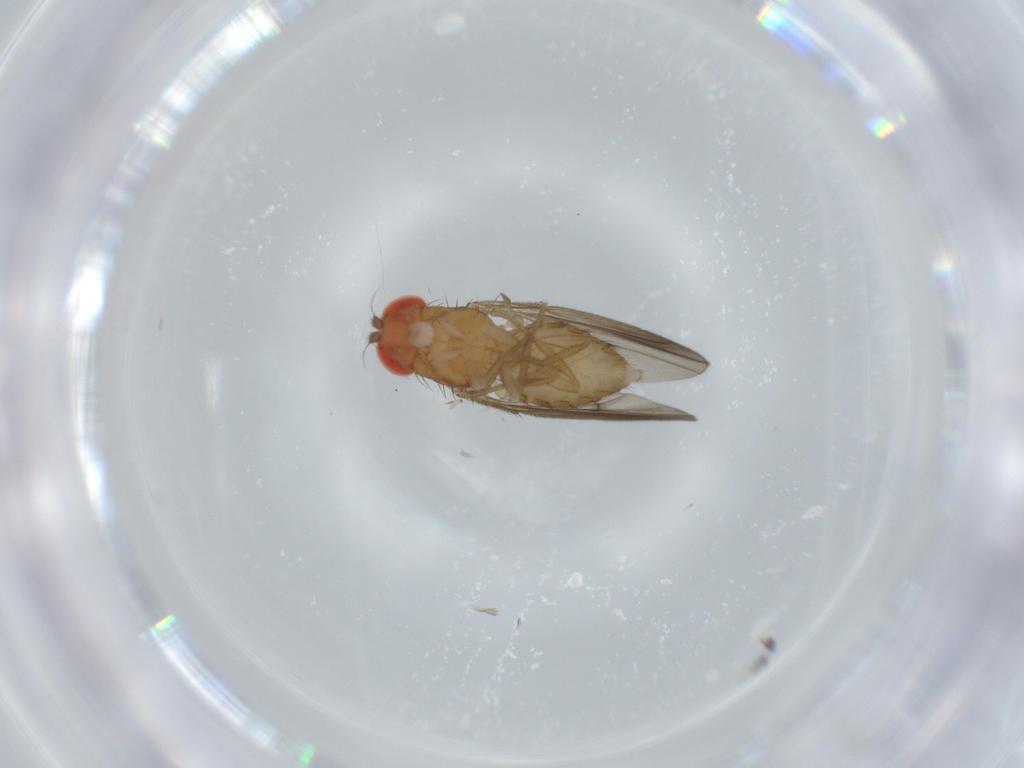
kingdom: Animalia
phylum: Arthropoda
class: Insecta
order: Diptera
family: Drosophilidae
